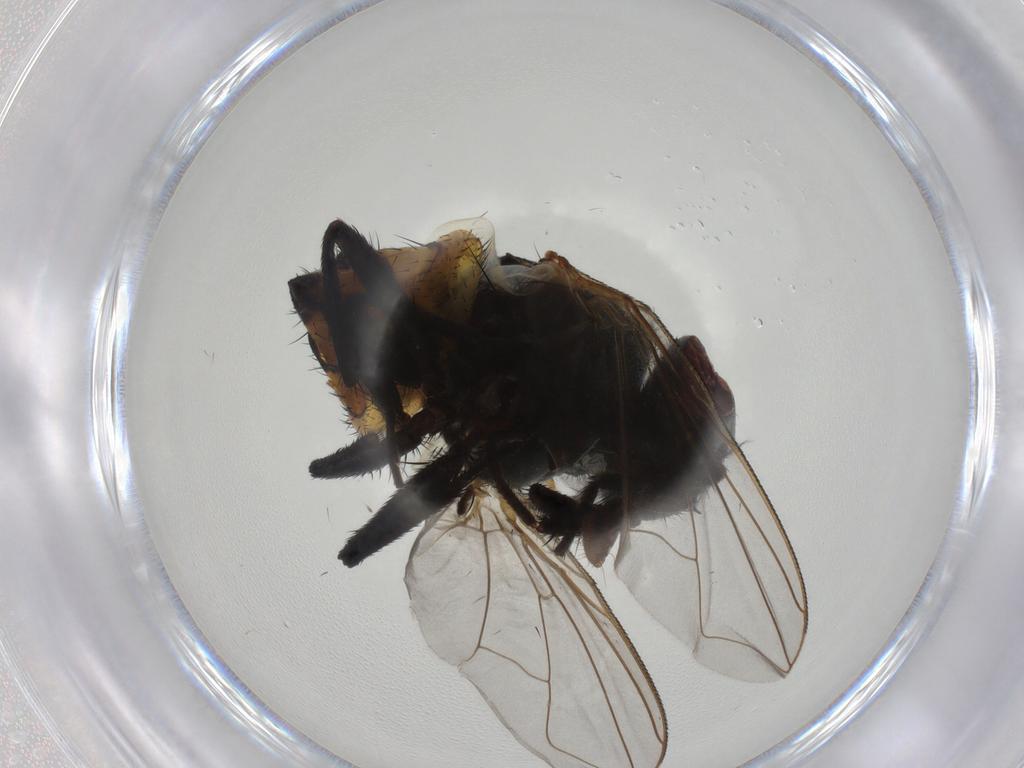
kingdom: Animalia
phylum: Arthropoda
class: Insecta
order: Diptera
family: Muscidae
